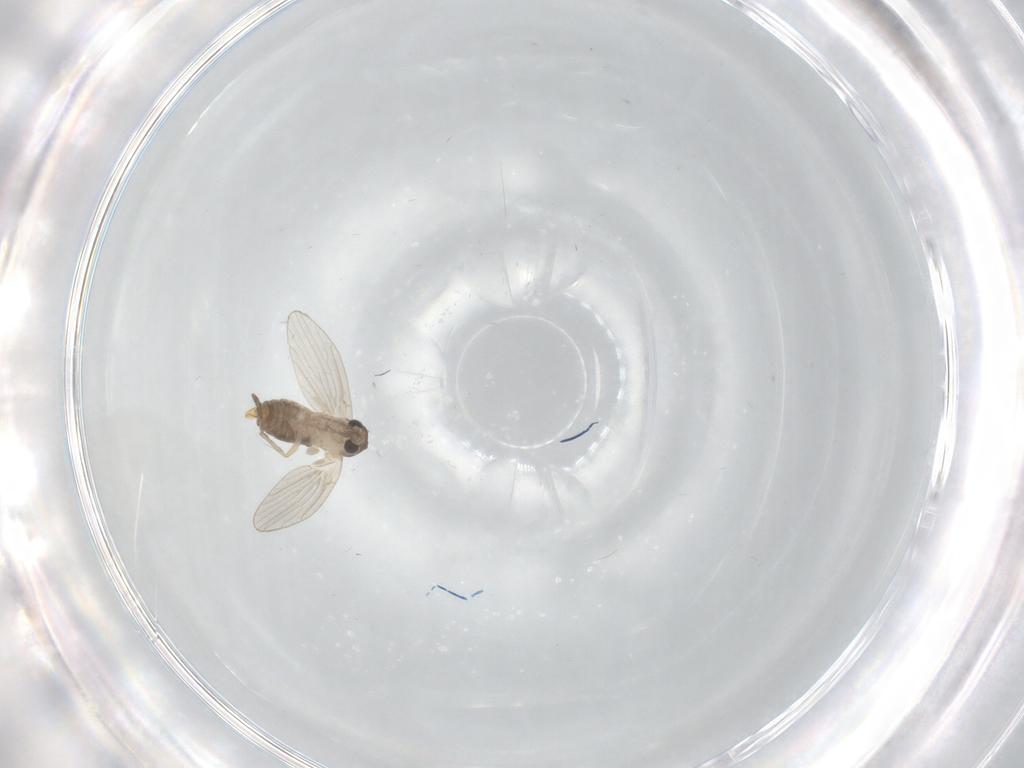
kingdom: Animalia
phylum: Arthropoda
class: Insecta
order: Diptera
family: Psychodidae
